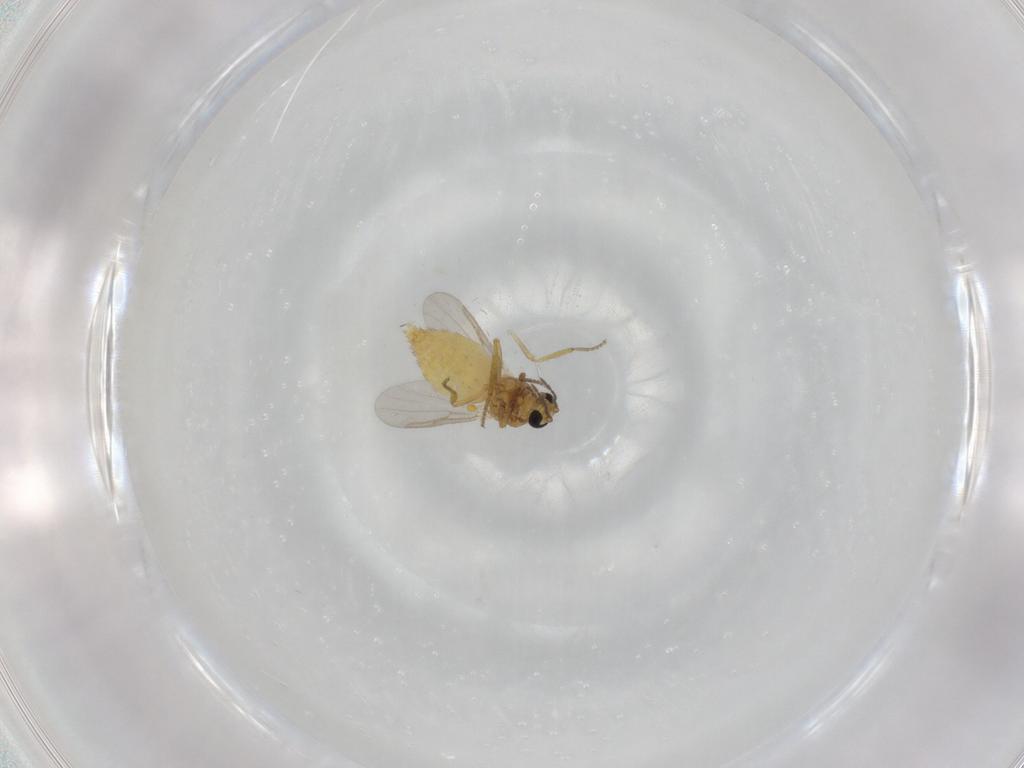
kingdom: Animalia
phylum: Arthropoda
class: Insecta
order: Diptera
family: Ceratopogonidae
